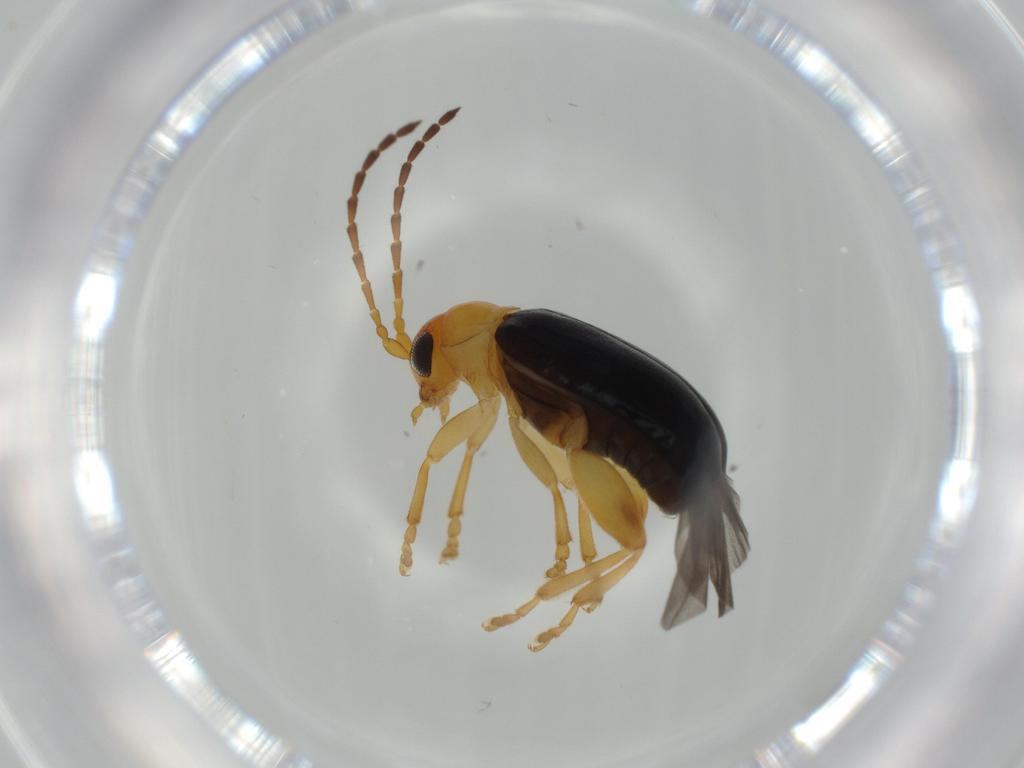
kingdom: Animalia
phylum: Arthropoda
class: Insecta
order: Coleoptera
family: Chrysomelidae
